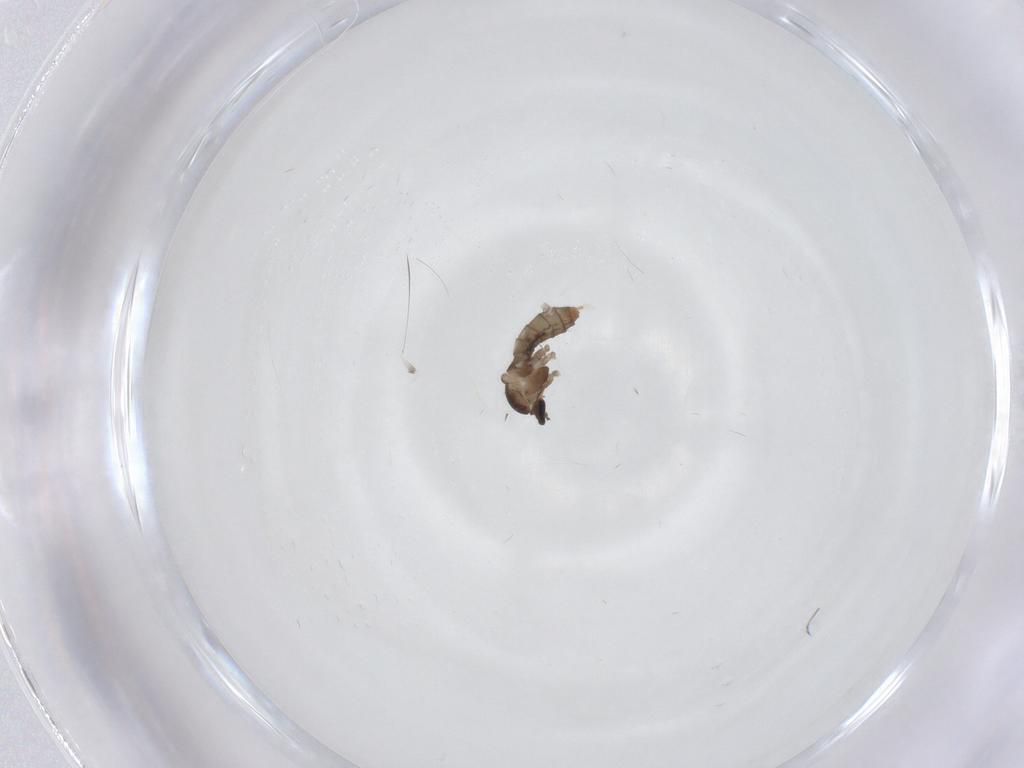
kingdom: Animalia
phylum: Arthropoda
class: Insecta
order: Diptera
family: Cecidomyiidae
